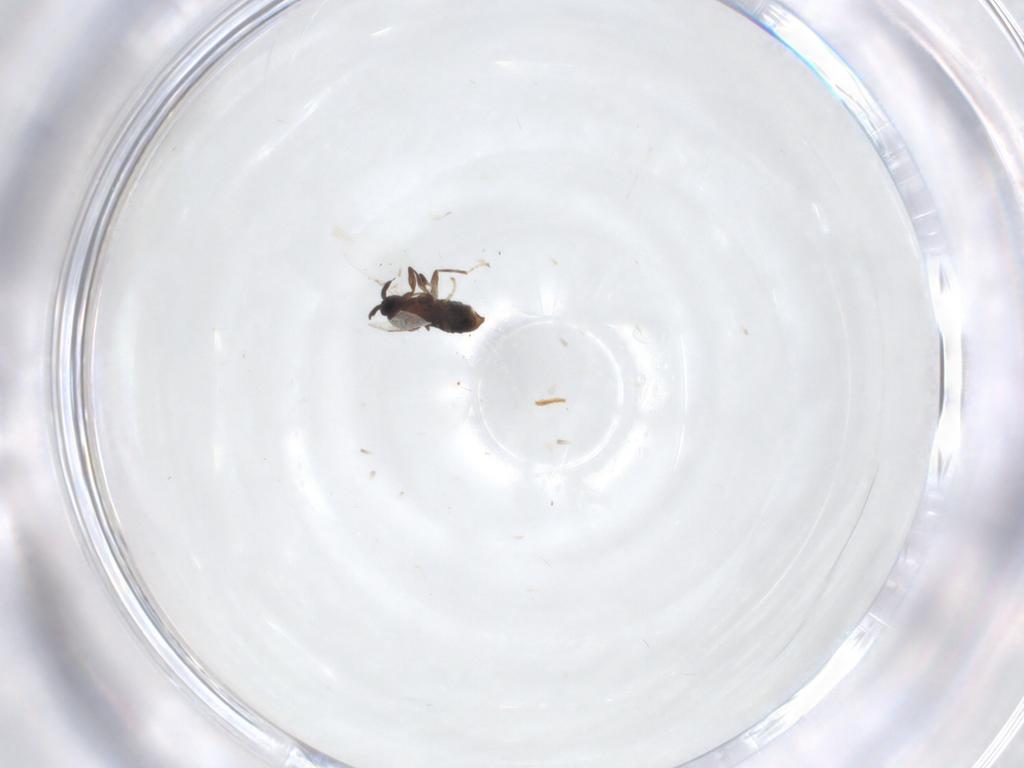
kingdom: Animalia
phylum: Arthropoda
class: Insecta
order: Diptera
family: Scatopsidae
